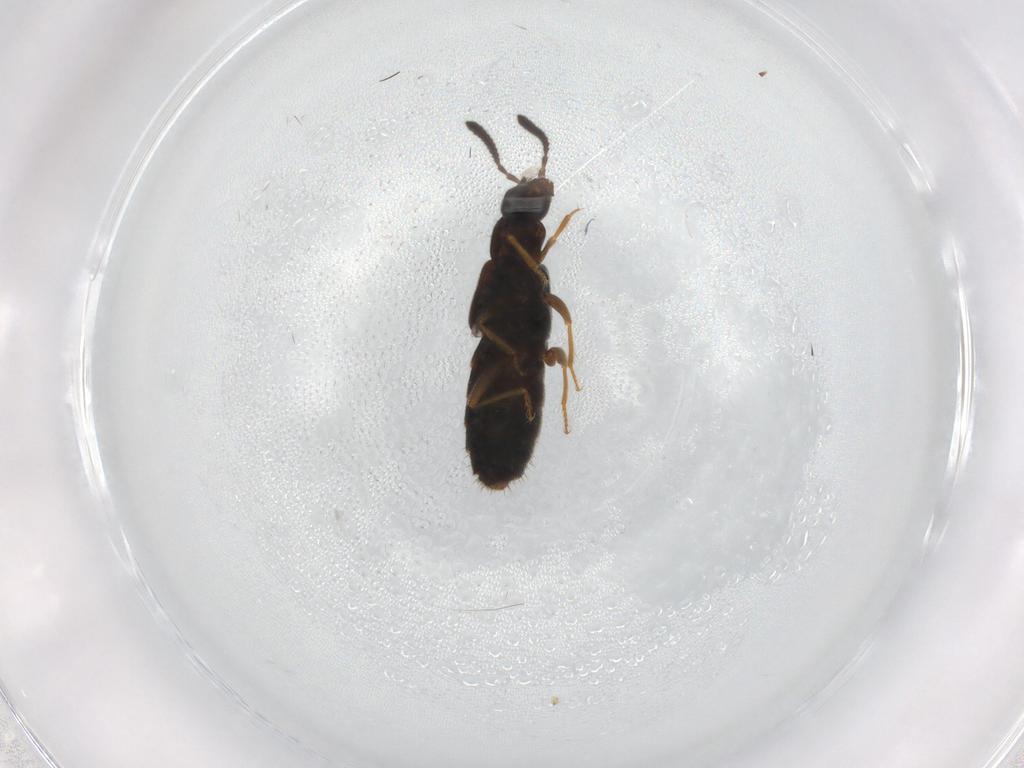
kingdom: Animalia
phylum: Arthropoda
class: Insecta
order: Coleoptera
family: Staphylinidae
